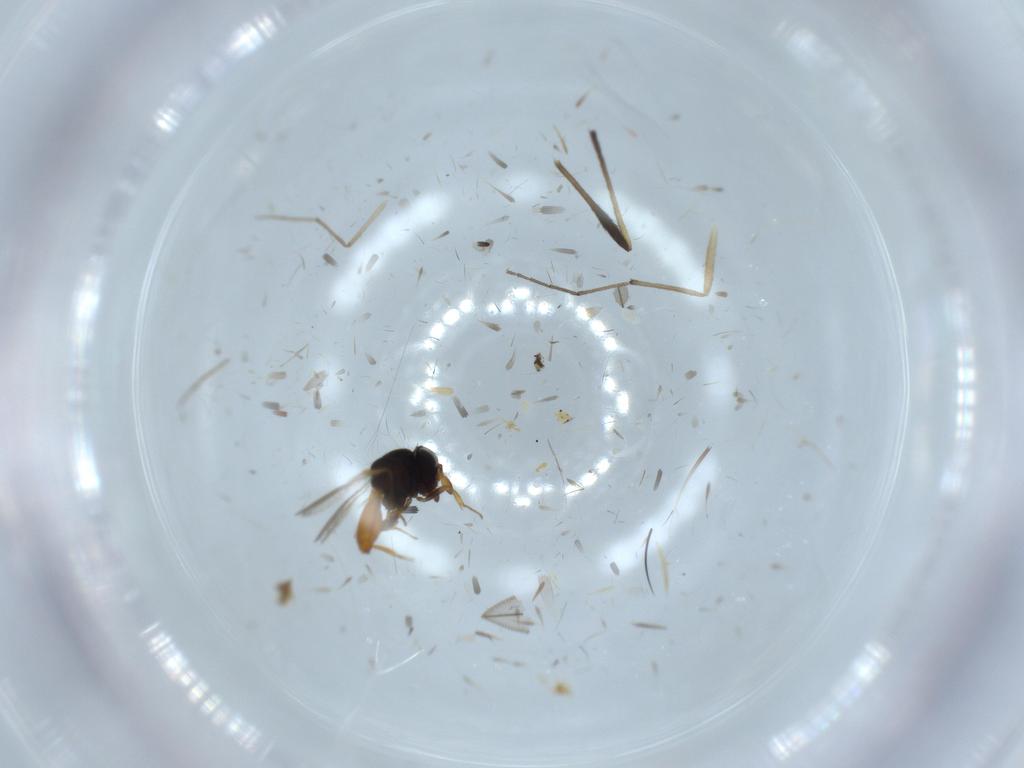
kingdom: Animalia
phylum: Arthropoda
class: Insecta
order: Hymenoptera
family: Scelionidae
